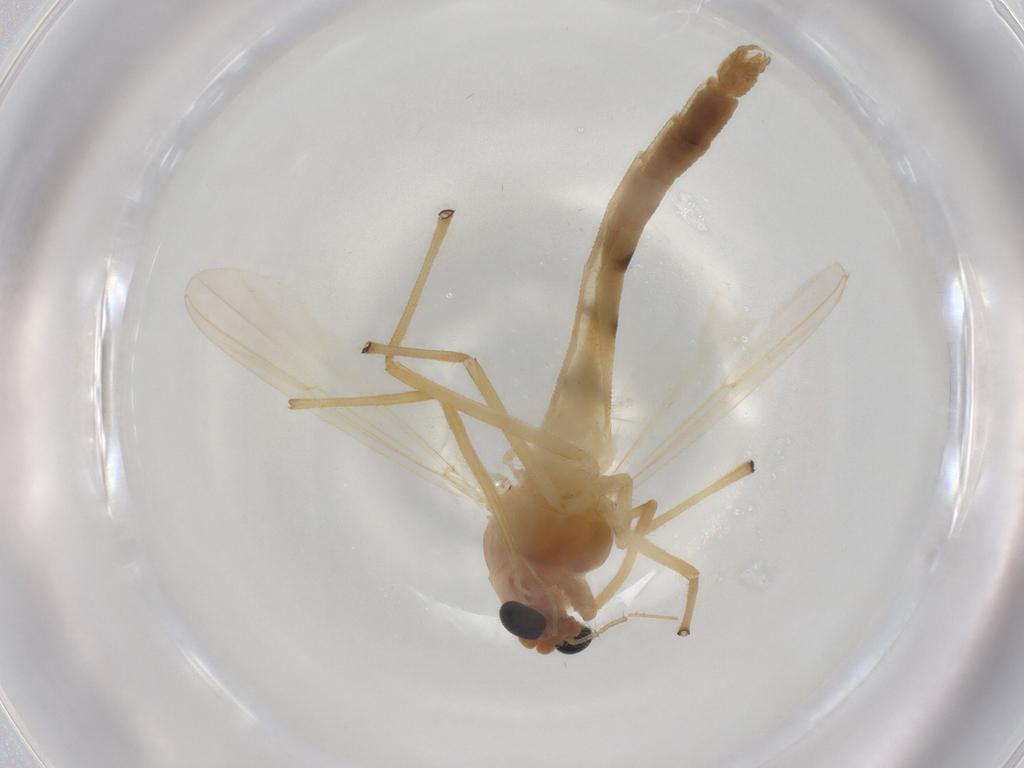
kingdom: Animalia
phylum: Arthropoda
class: Insecta
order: Diptera
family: Chironomidae
